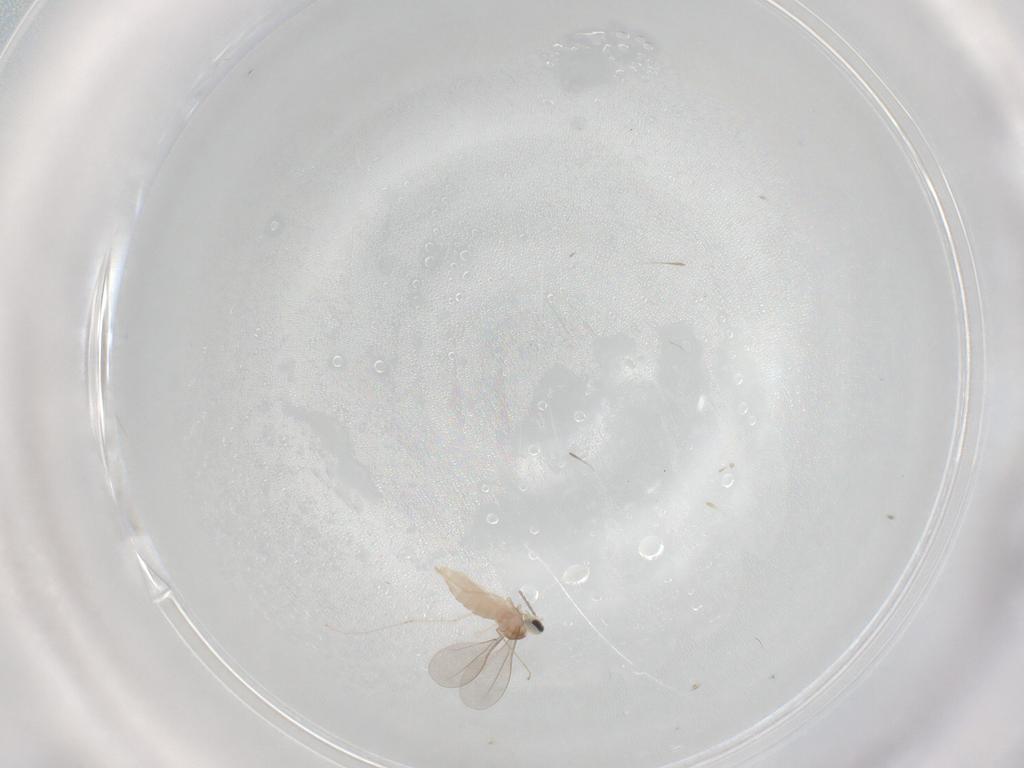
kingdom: Animalia
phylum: Arthropoda
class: Insecta
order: Diptera
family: Cecidomyiidae
